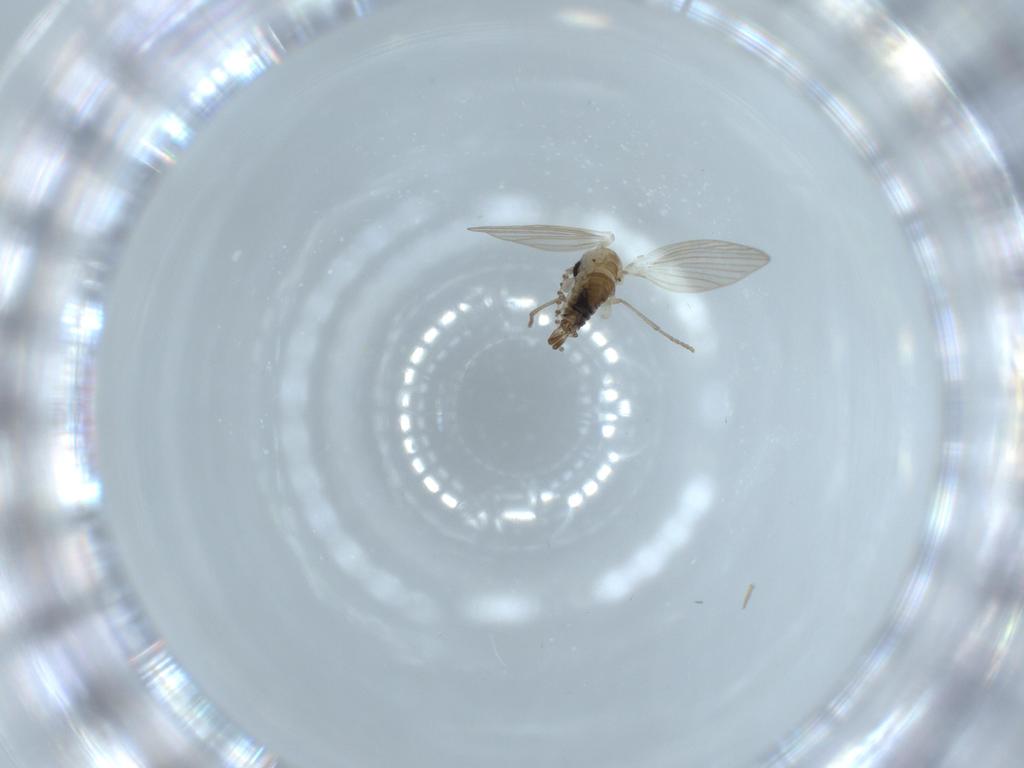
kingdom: Animalia
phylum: Arthropoda
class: Insecta
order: Diptera
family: Psychodidae
